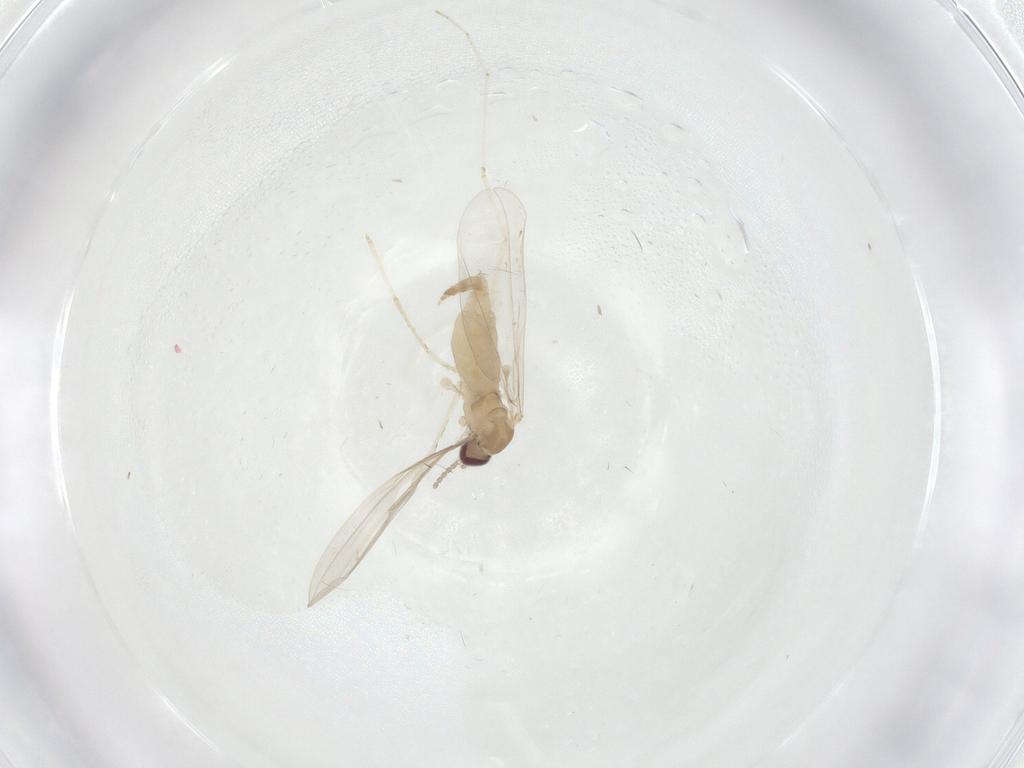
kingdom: Animalia
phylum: Arthropoda
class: Insecta
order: Diptera
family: Cecidomyiidae
